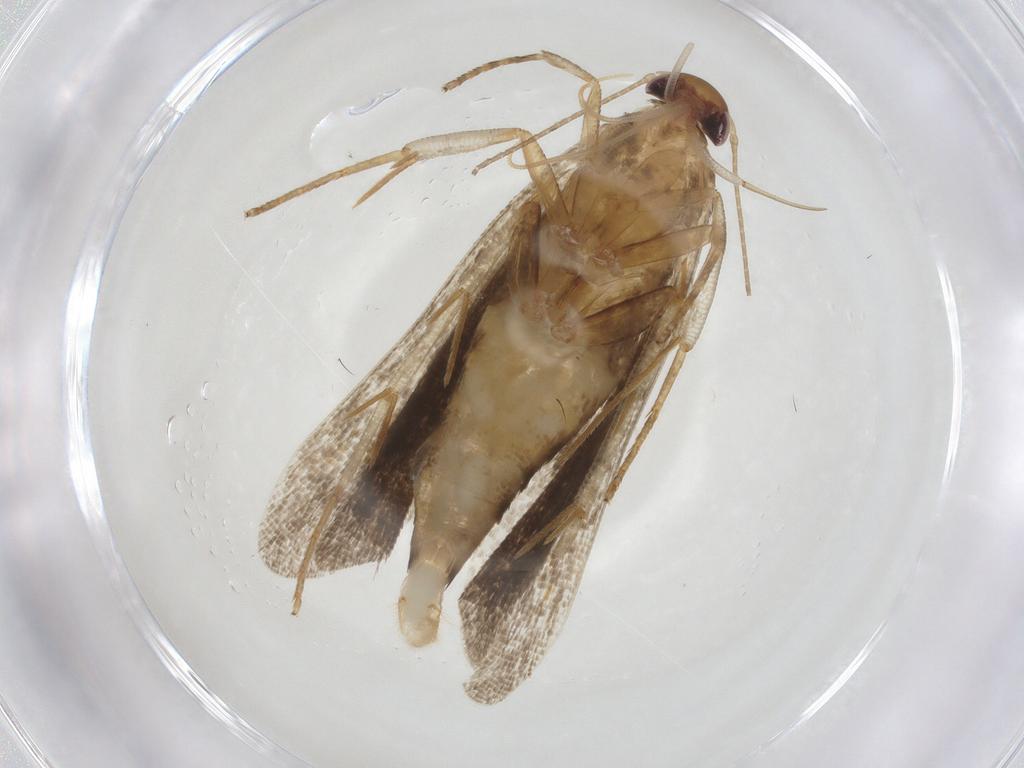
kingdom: Animalia
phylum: Arthropoda
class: Insecta
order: Lepidoptera
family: Crambidae
